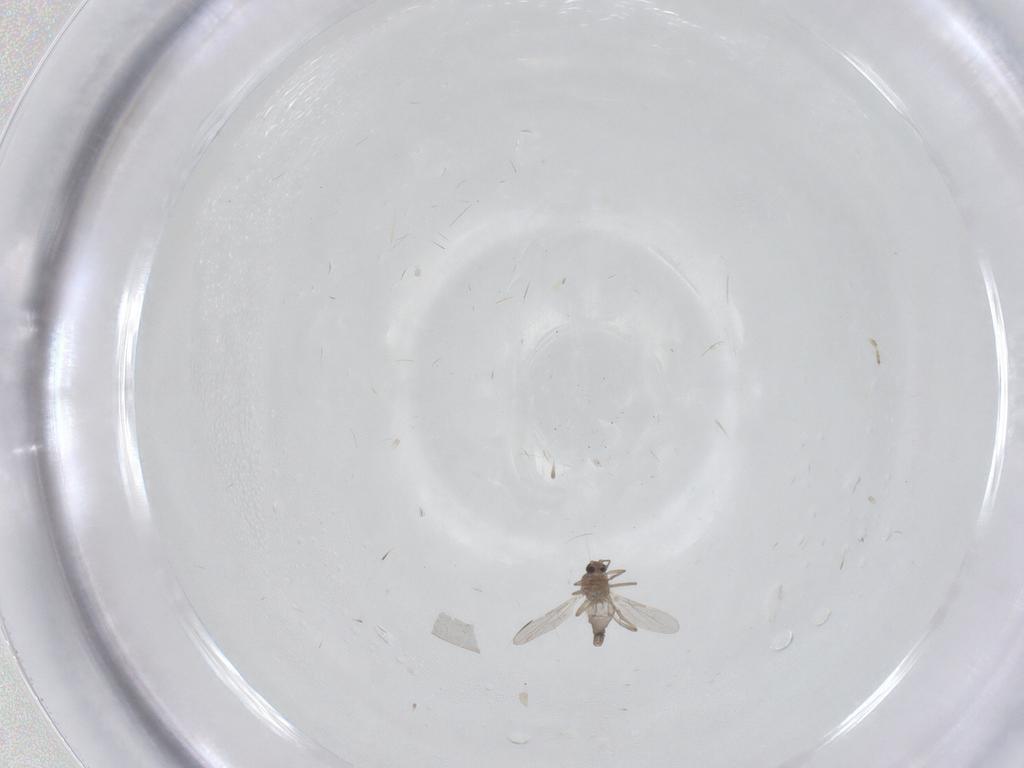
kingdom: Animalia
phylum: Arthropoda
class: Insecta
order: Diptera
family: Sciaridae
